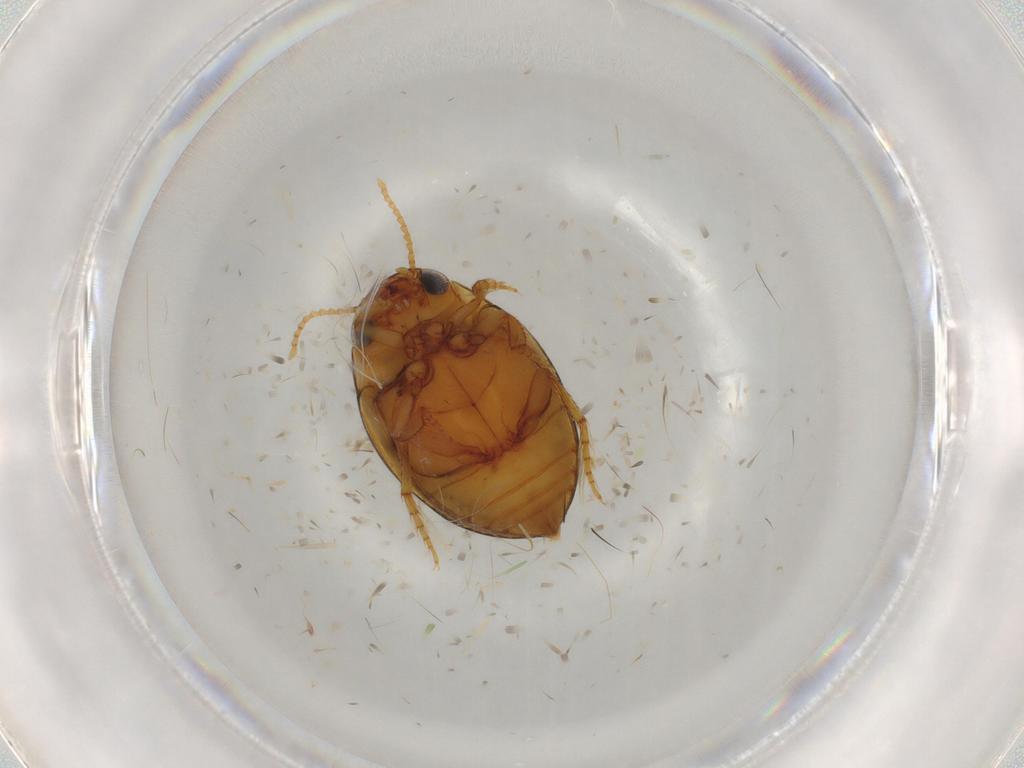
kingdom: Animalia
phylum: Arthropoda
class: Insecta
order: Coleoptera
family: Dytiscidae
